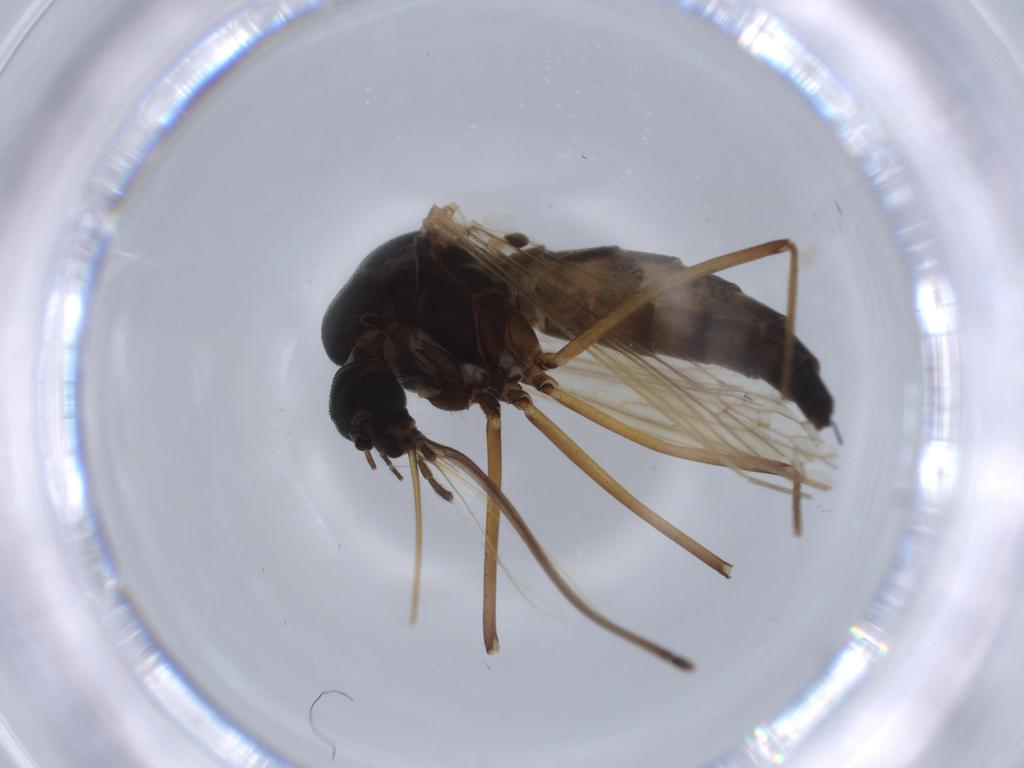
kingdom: Animalia
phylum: Arthropoda
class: Insecta
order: Diptera
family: Phoridae
